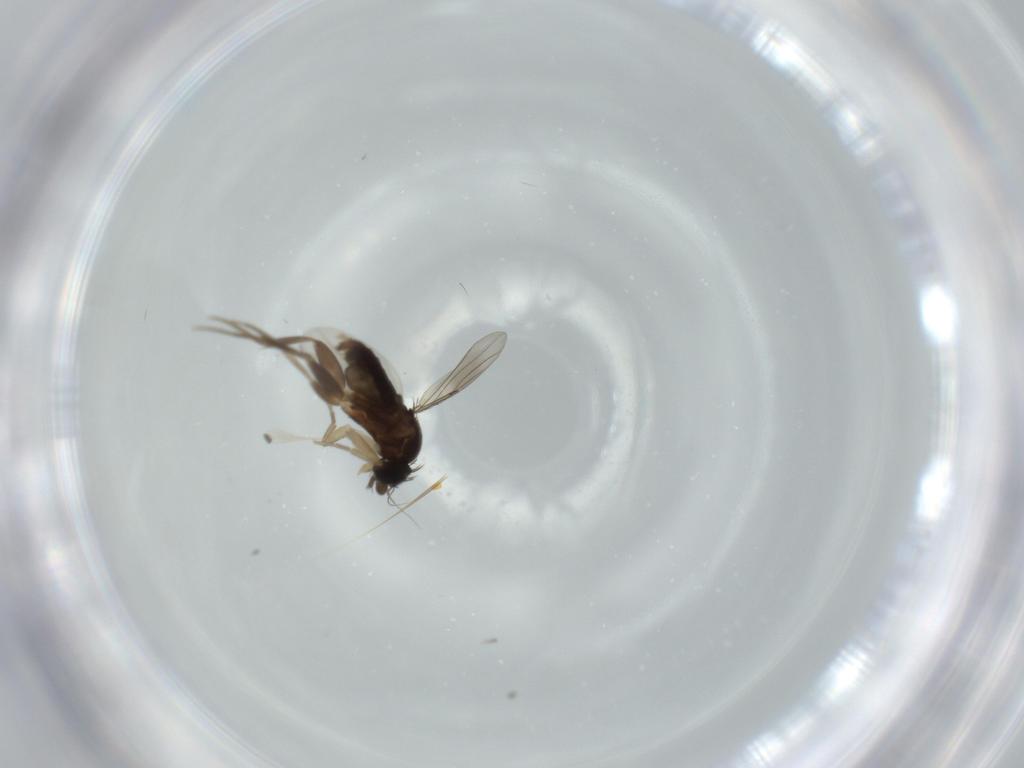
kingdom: Animalia
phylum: Arthropoda
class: Insecta
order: Diptera
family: Phoridae
